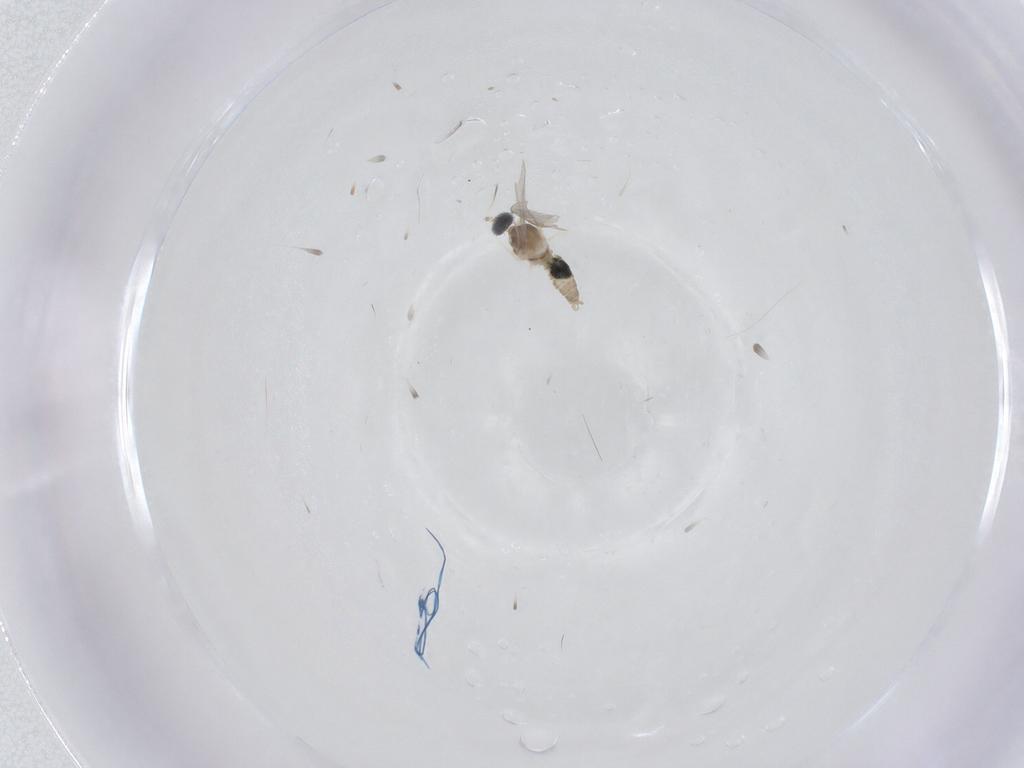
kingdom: Animalia
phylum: Arthropoda
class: Insecta
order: Diptera
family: Cecidomyiidae
